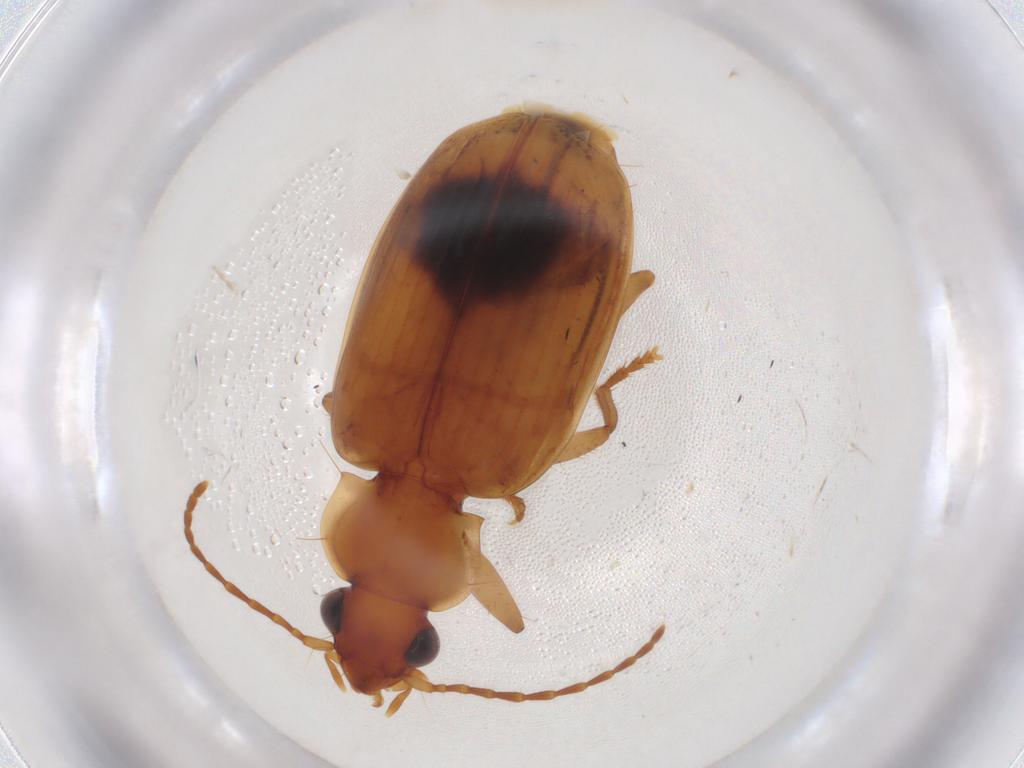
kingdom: Animalia
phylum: Arthropoda
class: Insecta
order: Coleoptera
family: Carabidae
